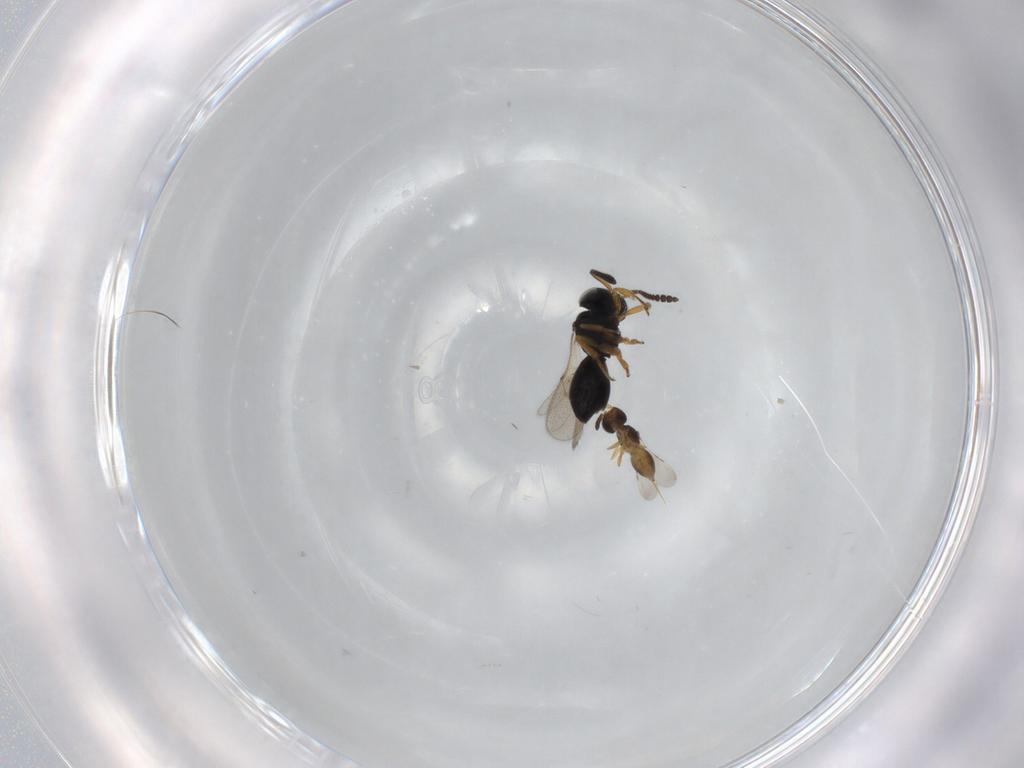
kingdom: Animalia
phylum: Arthropoda
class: Insecta
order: Hymenoptera
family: Scelionidae
